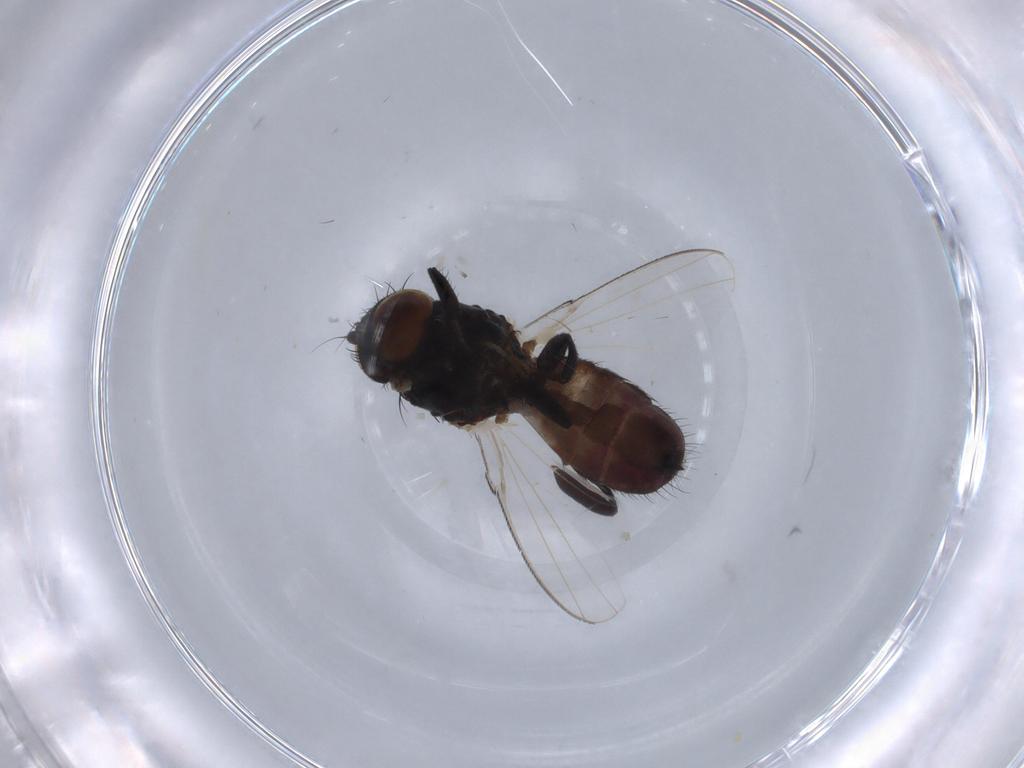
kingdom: Animalia
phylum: Arthropoda
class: Insecta
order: Diptera
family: Milichiidae
